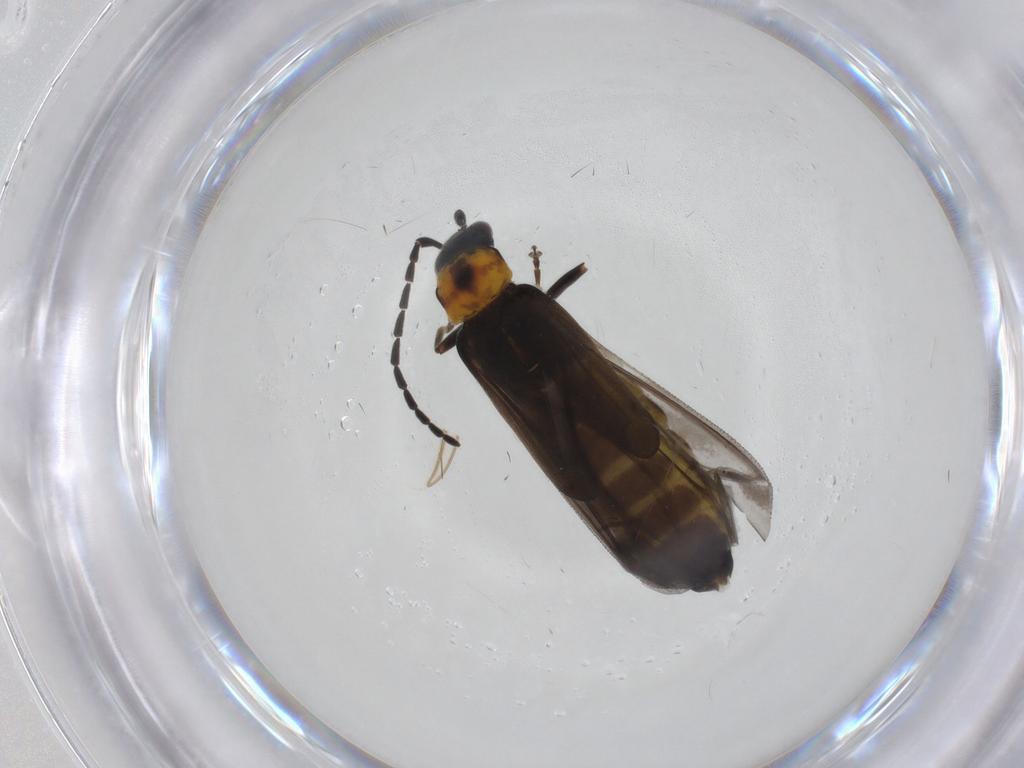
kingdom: Animalia
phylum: Arthropoda
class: Insecta
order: Coleoptera
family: Cantharidae
